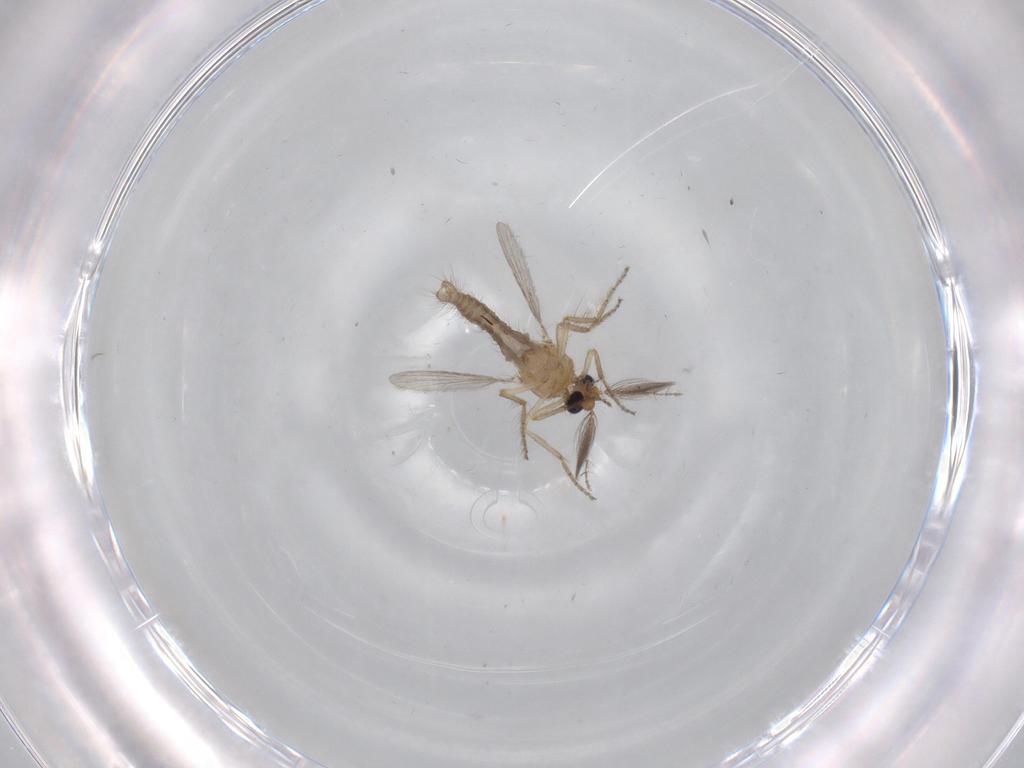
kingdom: Animalia
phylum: Arthropoda
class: Insecta
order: Diptera
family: Ceratopogonidae
